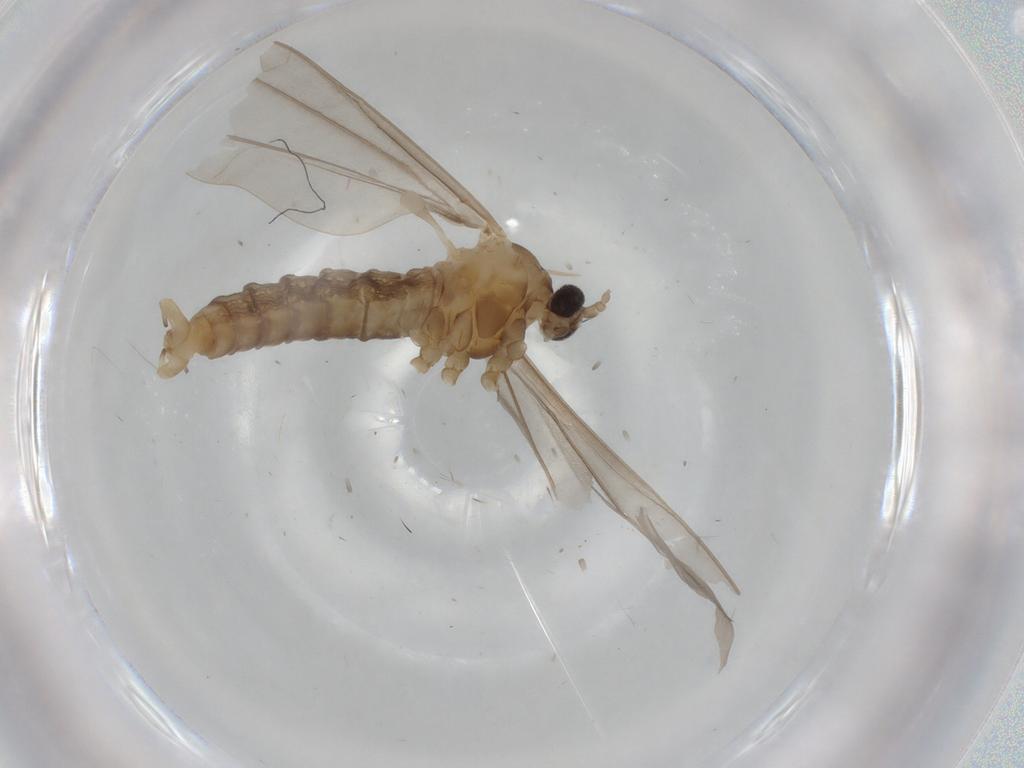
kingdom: Animalia
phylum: Arthropoda
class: Insecta
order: Diptera
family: Cecidomyiidae
